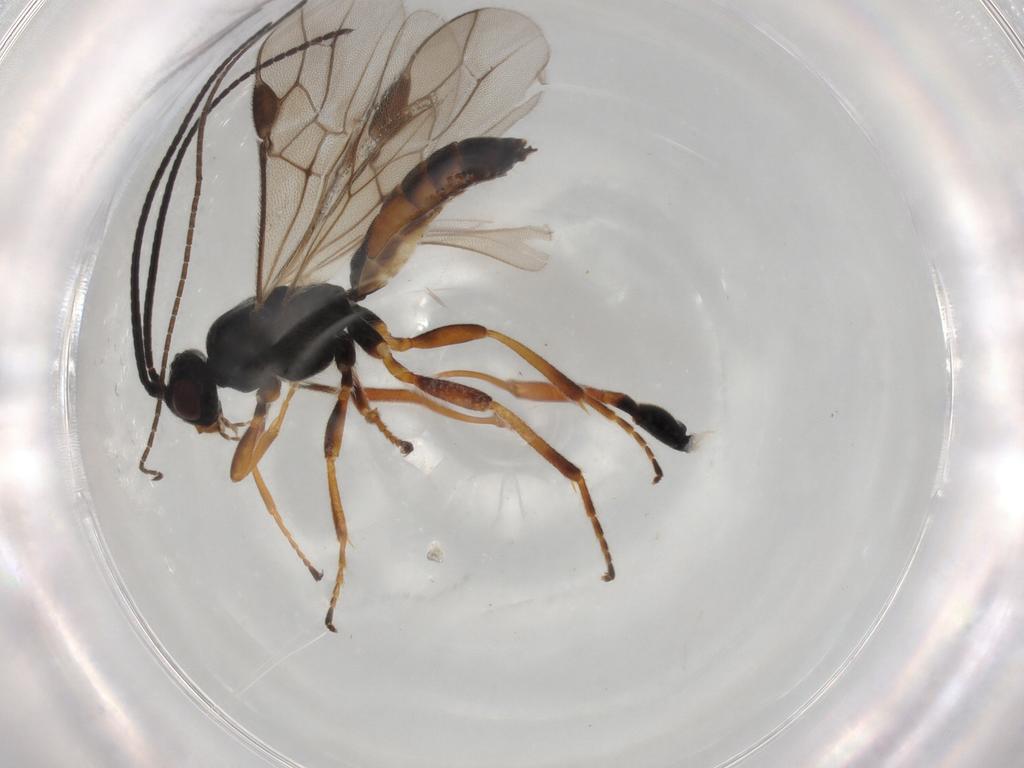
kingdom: Animalia
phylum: Arthropoda
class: Insecta
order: Hymenoptera
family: Braconidae
